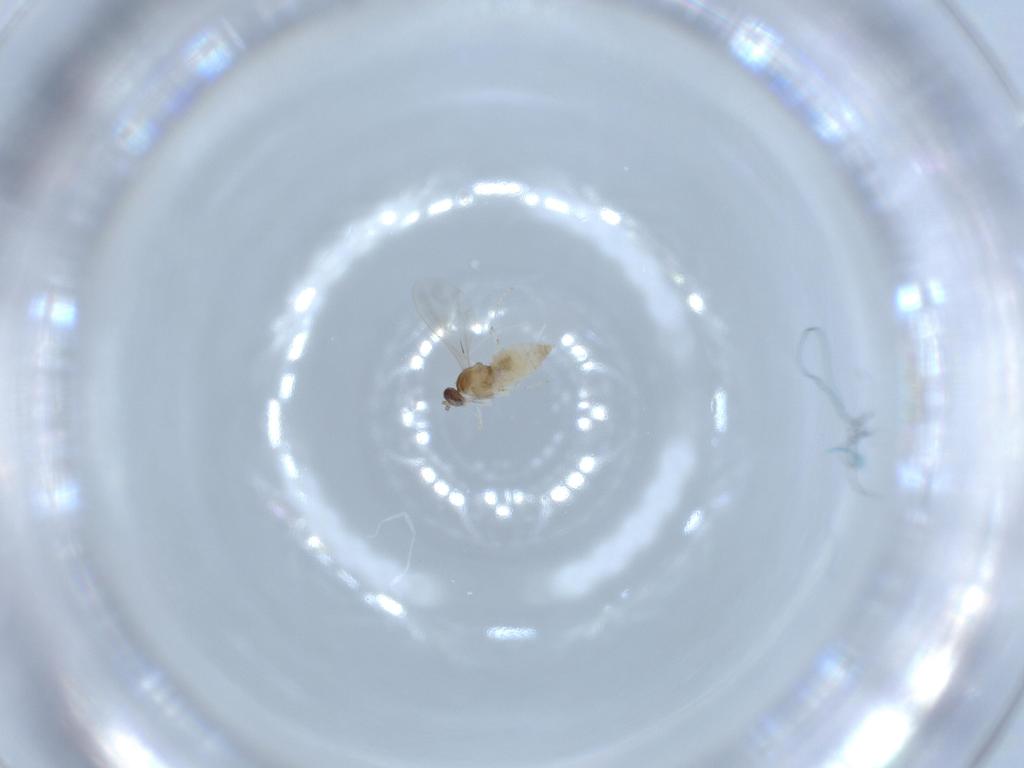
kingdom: Animalia
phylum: Arthropoda
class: Insecta
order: Diptera
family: Cecidomyiidae
